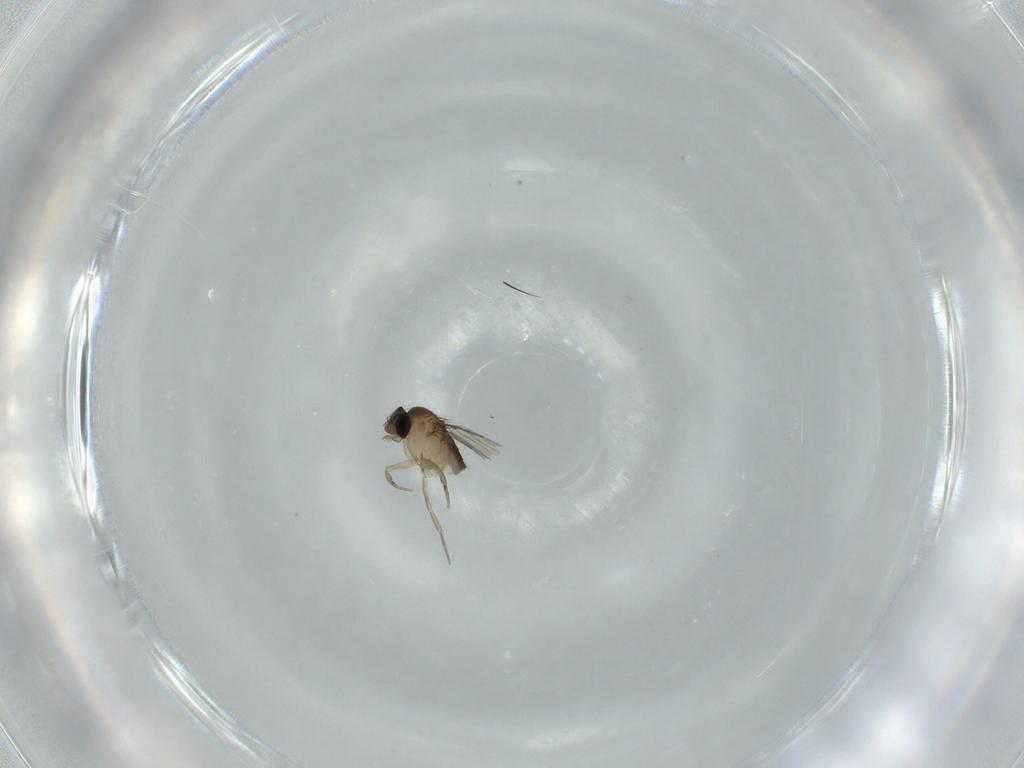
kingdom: Animalia
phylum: Arthropoda
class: Insecta
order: Diptera
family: Phoridae
